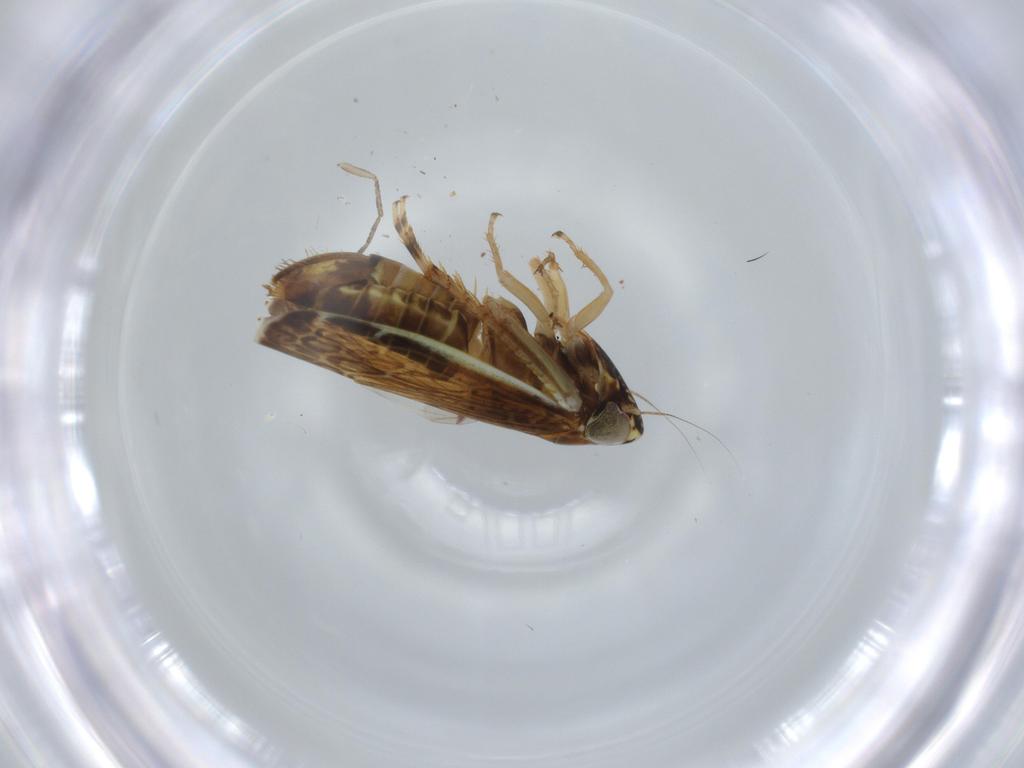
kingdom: Animalia
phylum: Arthropoda
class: Insecta
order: Hemiptera
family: Cicadellidae
